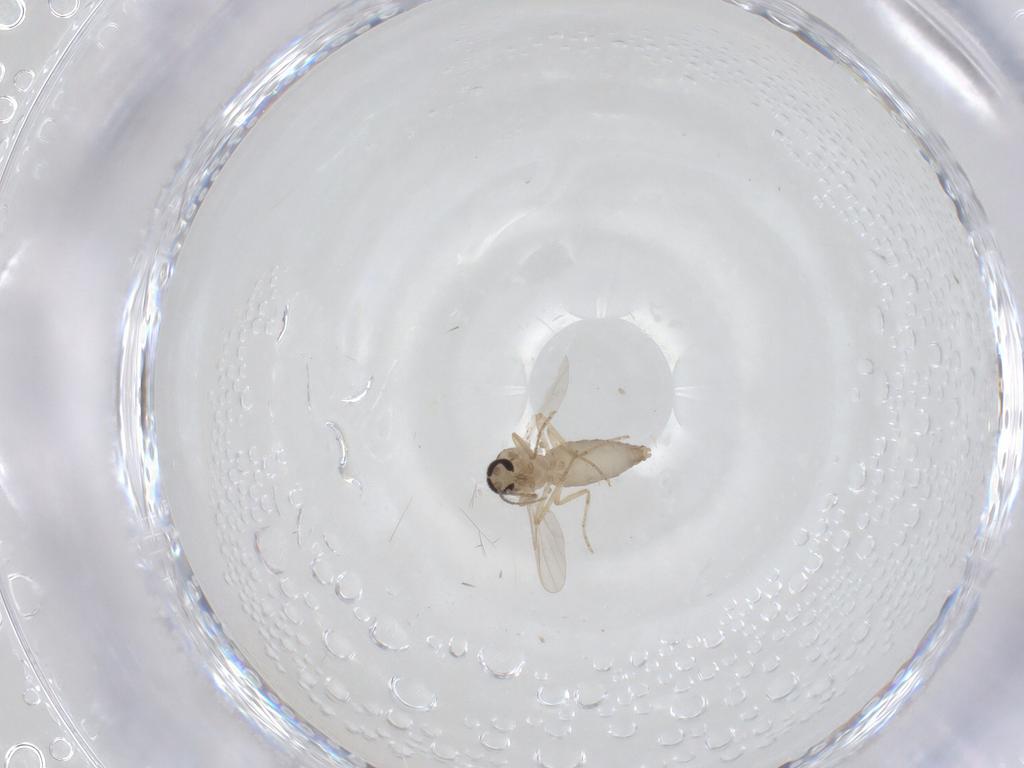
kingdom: Animalia
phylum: Arthropoda
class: Insecta
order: Diptera
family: Ceratopogonidae
